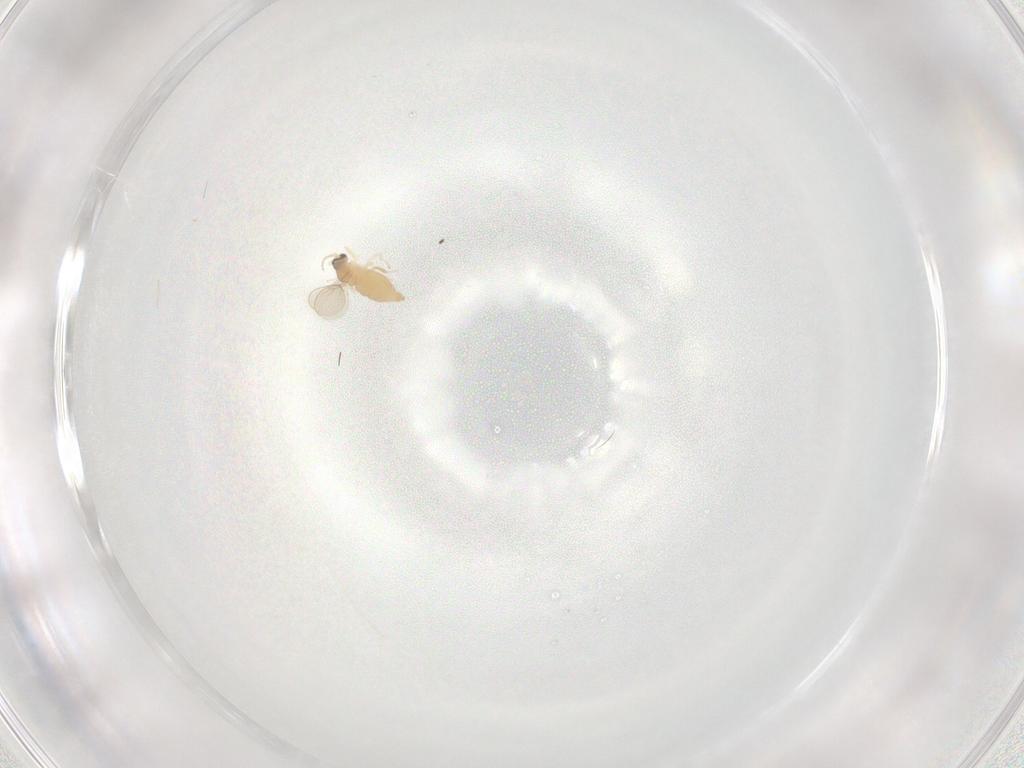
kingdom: Animalia
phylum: Arthropoda
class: Insecta
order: Diptera
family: Cecidomyiidae
